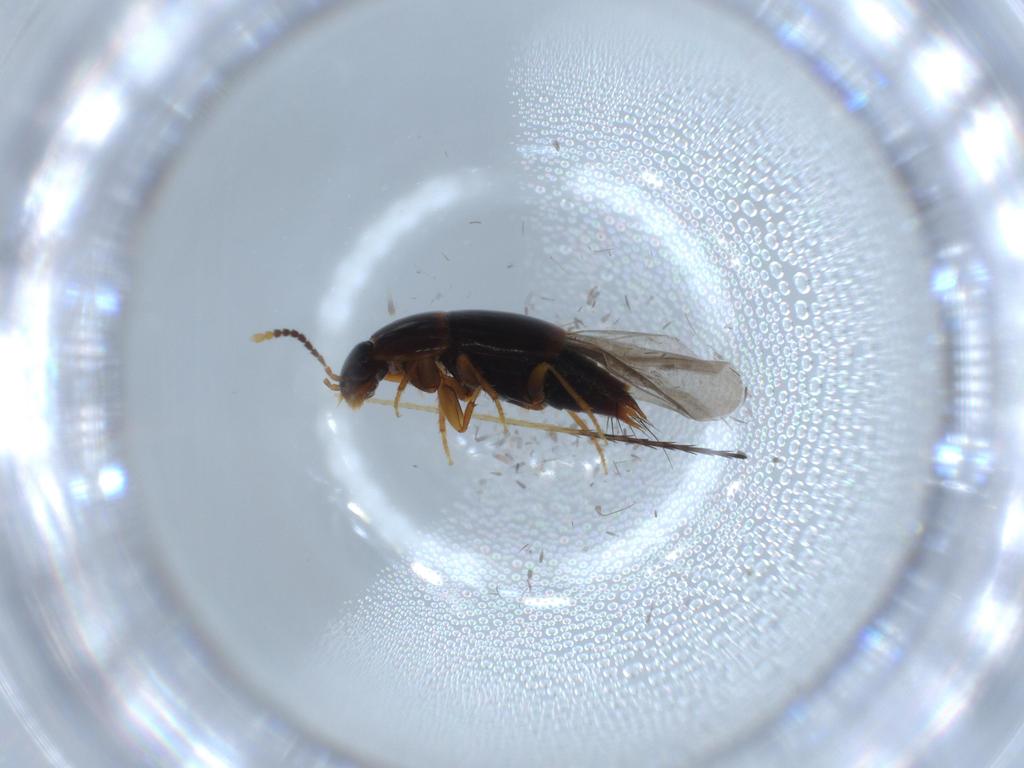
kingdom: Animalia
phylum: Arthropoda
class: Insecta
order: Coleoptera
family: Staphylinidae
